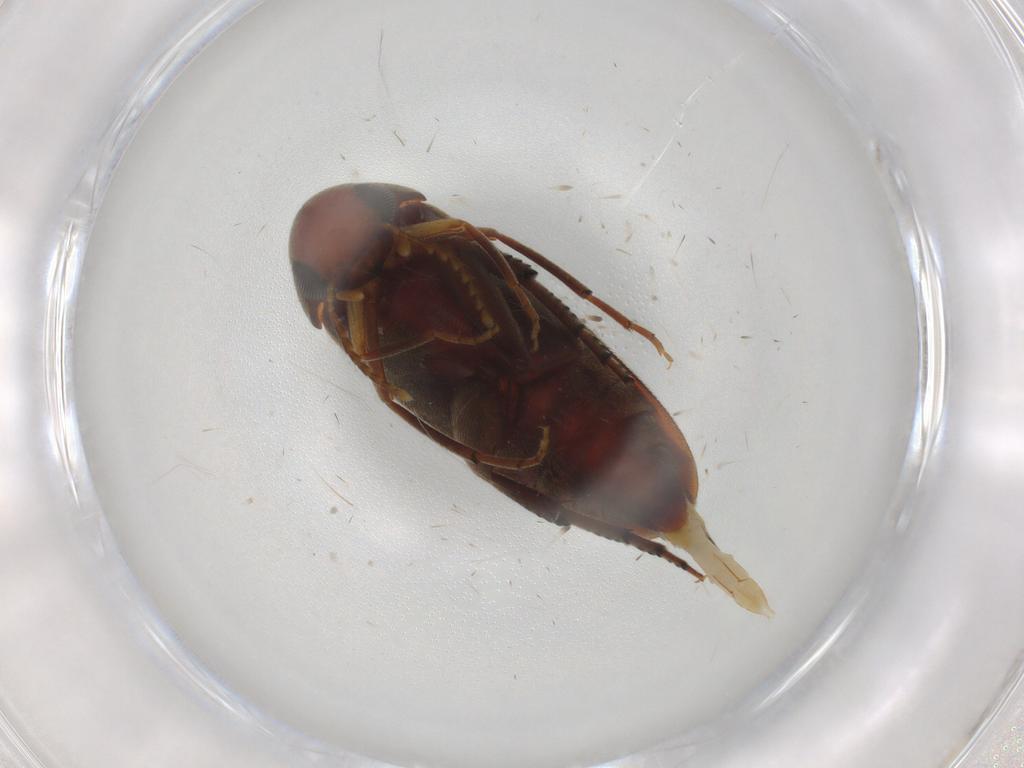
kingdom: Animalia
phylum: Arthropoda
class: Insecta
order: Coleoptera
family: Mordellidae
